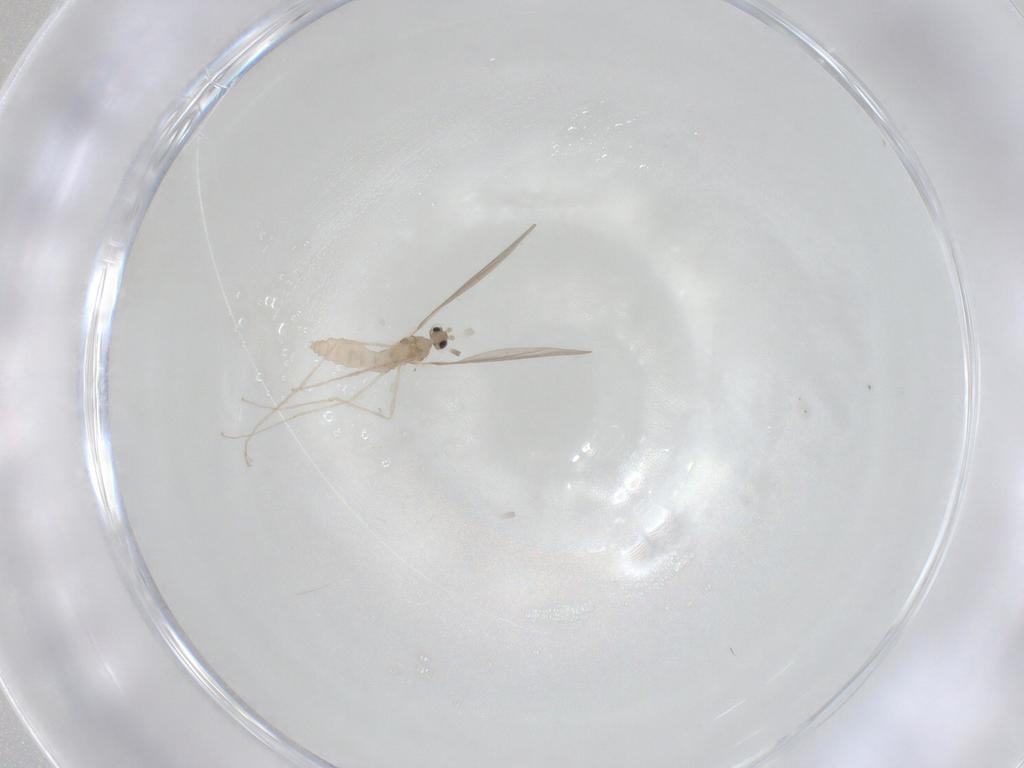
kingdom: Animalia
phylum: Arthropoda
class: Insecta
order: Diptera
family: Cecidomyiidae
